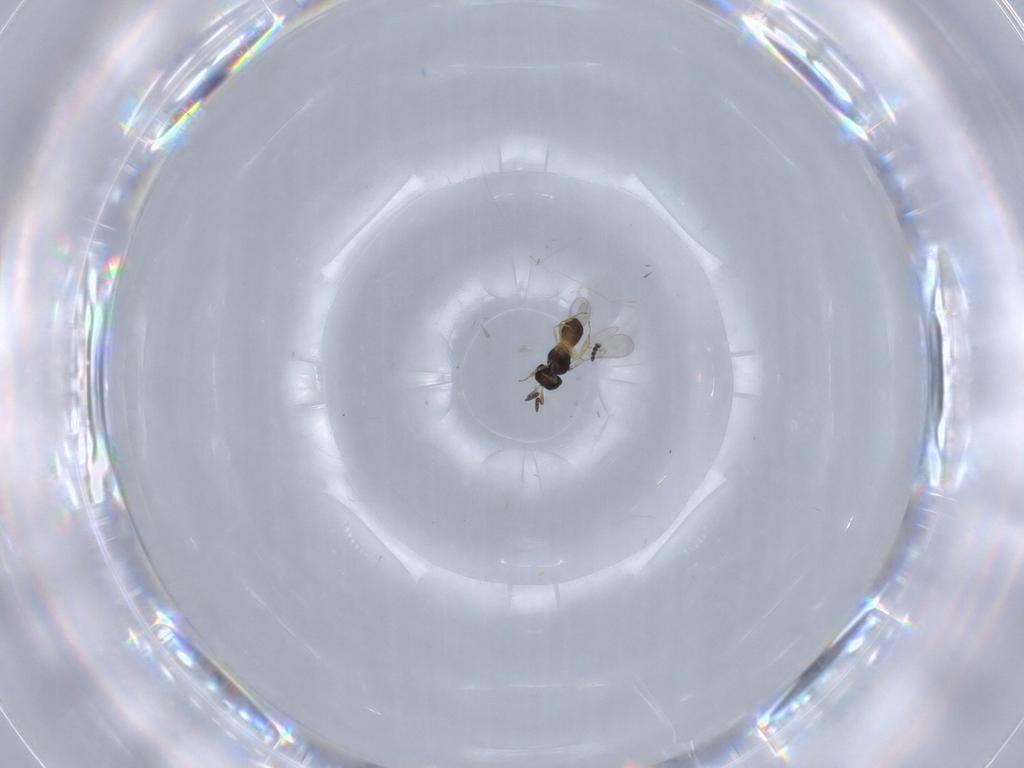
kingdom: Animalia
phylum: Arthropoda
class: Insecta
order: Hymenoptera
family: Scelionidae
